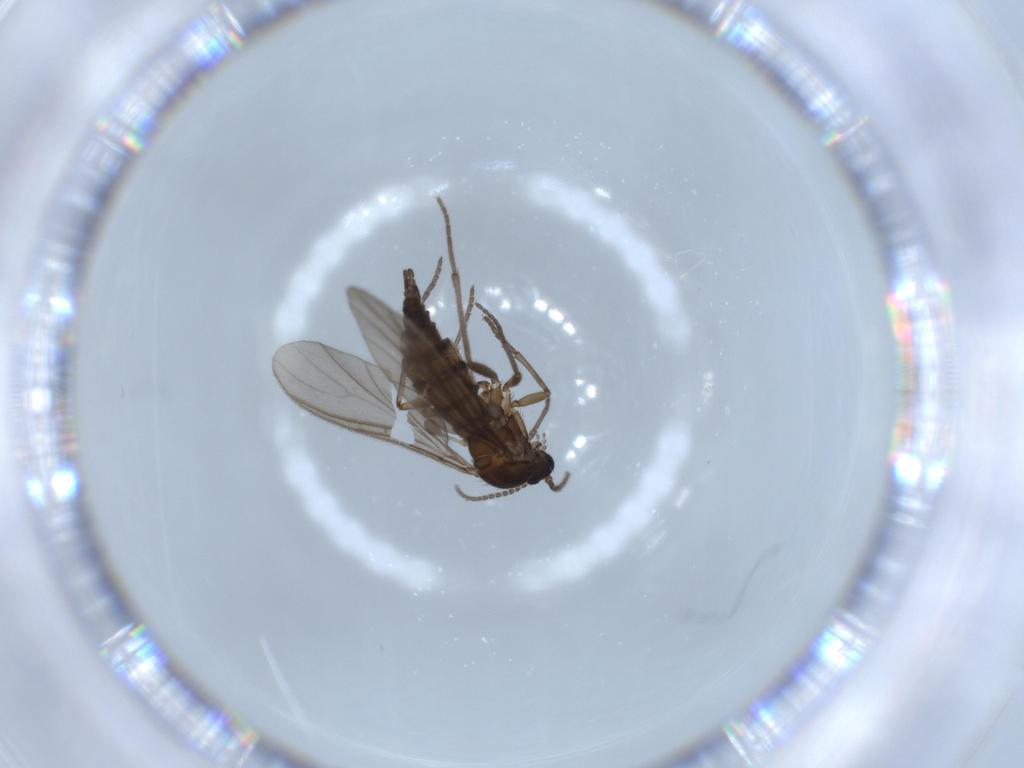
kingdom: Animalia
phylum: Arthropoda
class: Insecta
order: Diptera
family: Sciaridae
